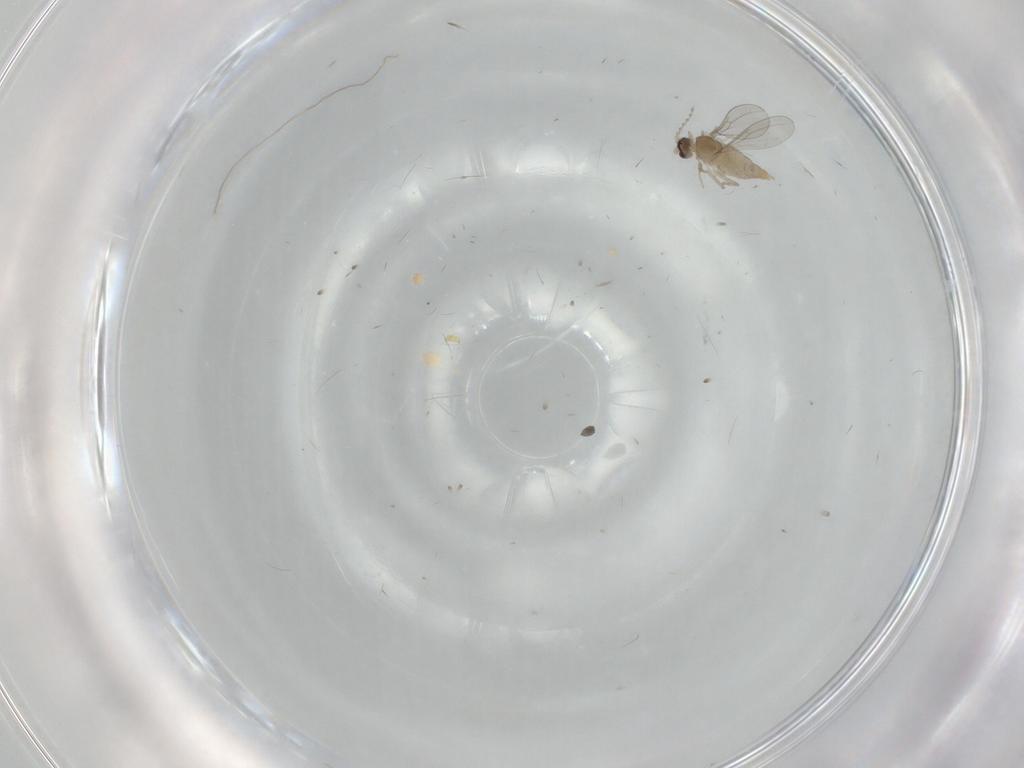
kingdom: Animalia
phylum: Arthropoda
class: Insecta
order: Diptera
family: Cecidomyiidae
